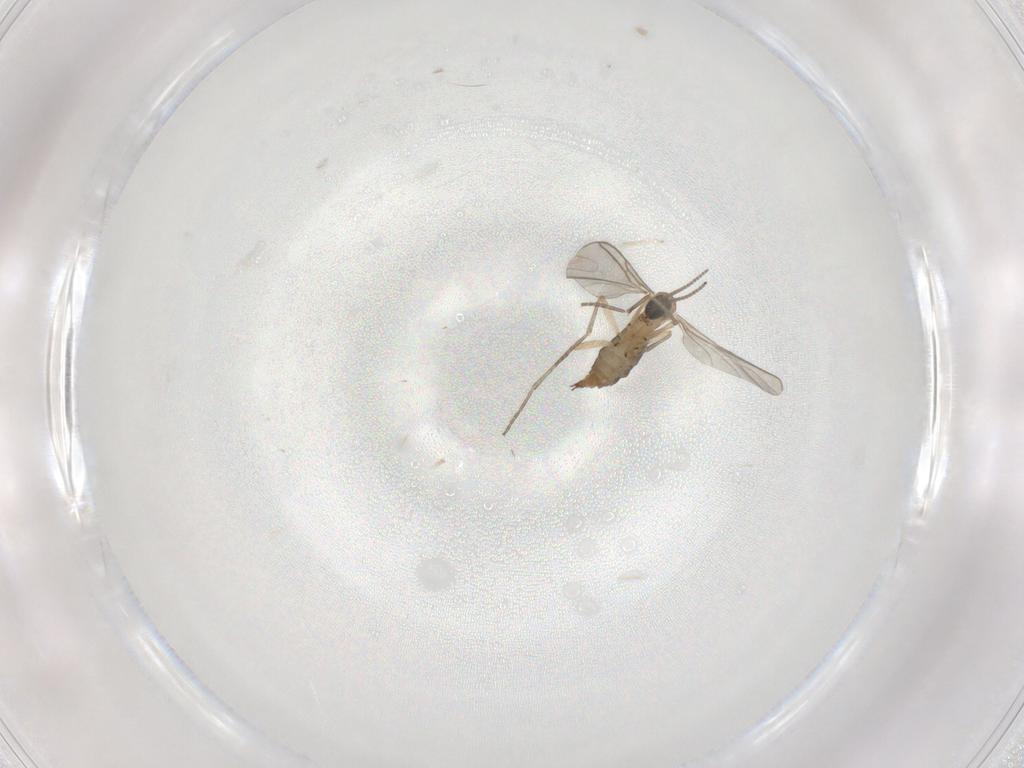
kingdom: Animalia
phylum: Arthropoda
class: Insecta
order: Diptera
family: Sciaridae
